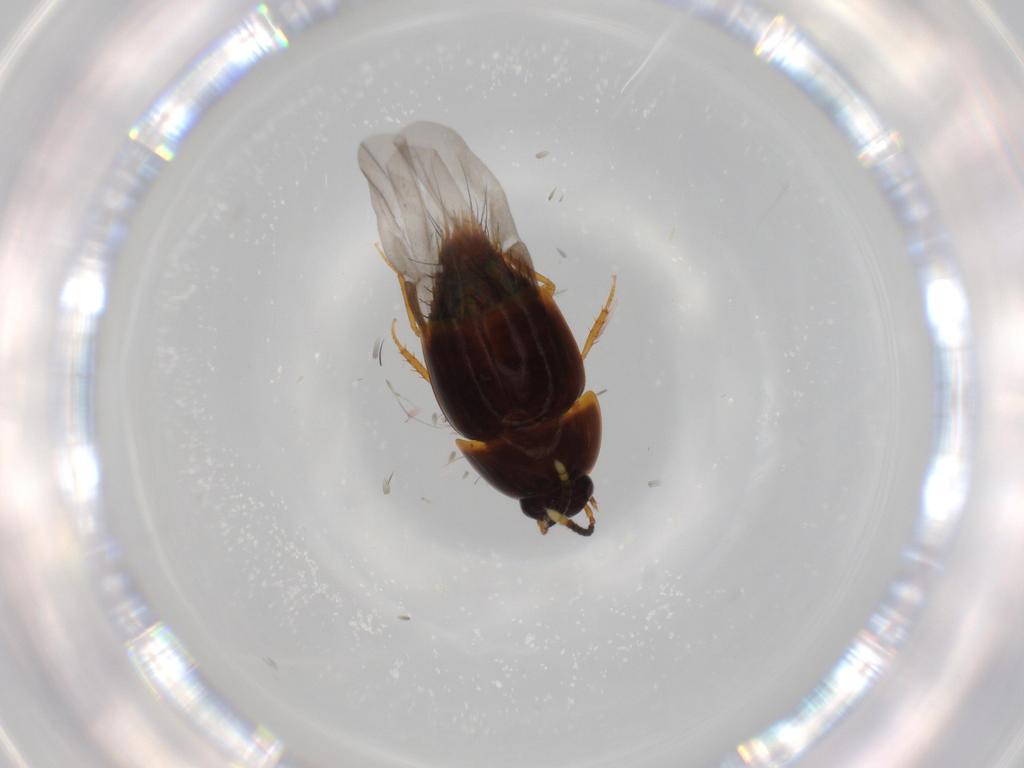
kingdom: Animalia
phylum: Arthropoda
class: Insecta
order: Coleoptera
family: Staphylinidae
